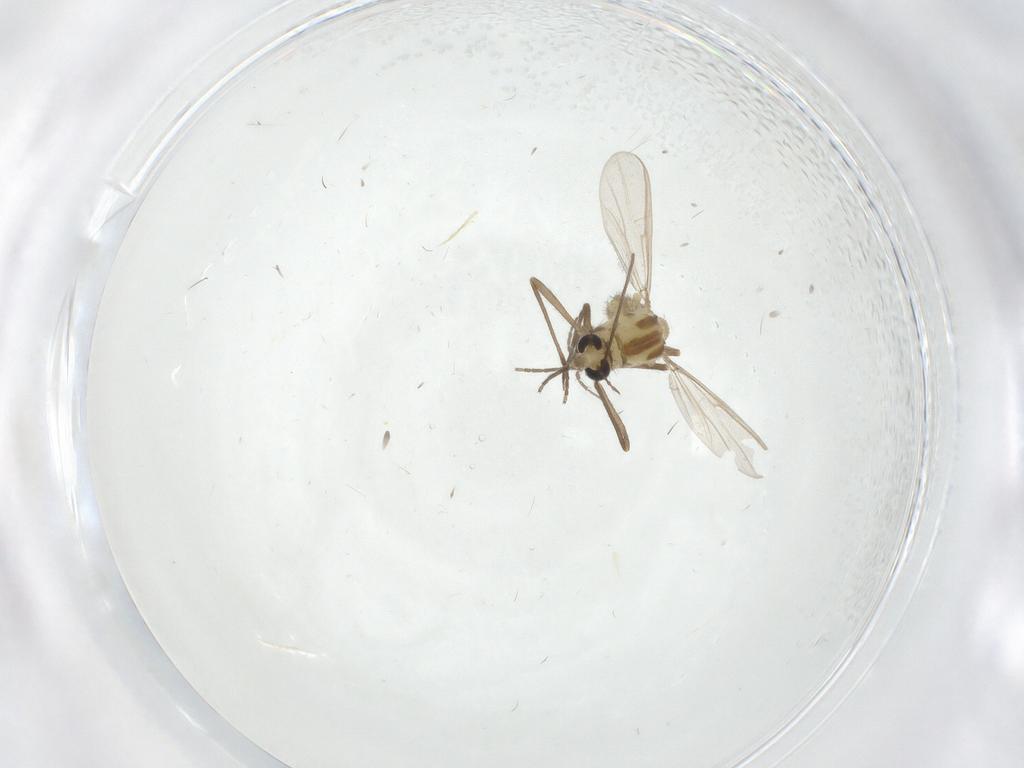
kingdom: Animalia
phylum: Arthropoda
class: Insecta
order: Diptera
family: Chironomidae
